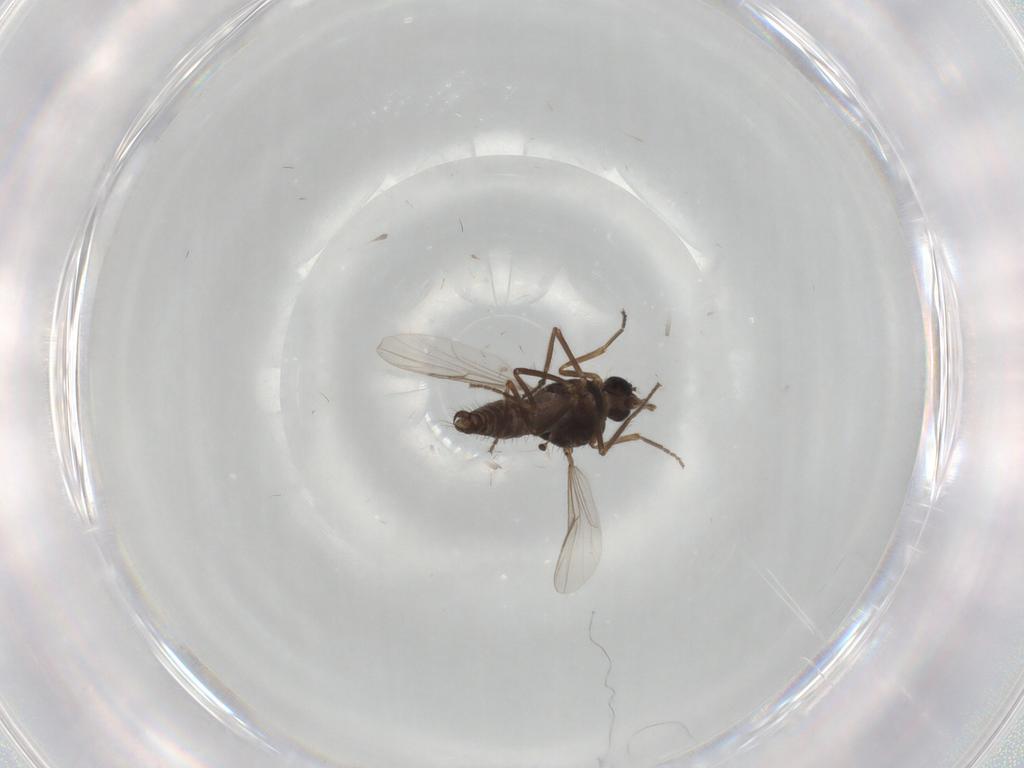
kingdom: Animalia
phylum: Arthropoda
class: Insecta
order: Diptera
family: Ceratopogonidae
